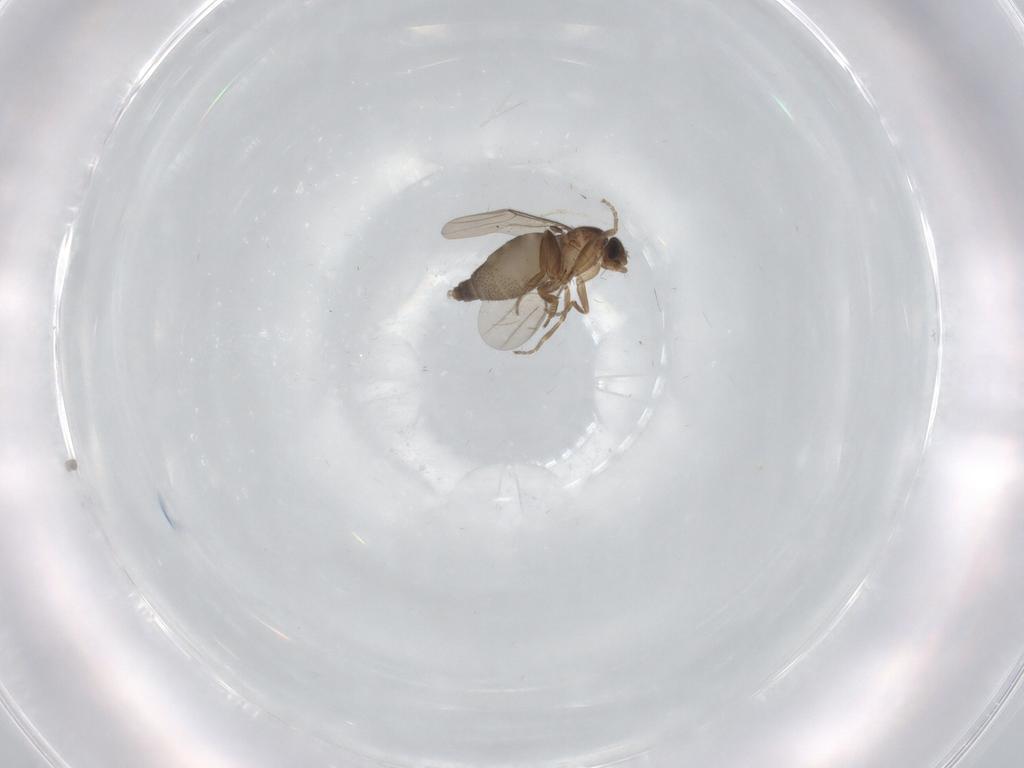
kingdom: Animalia
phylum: Arthropoda
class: Insecta
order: Diptera
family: Phoridae
